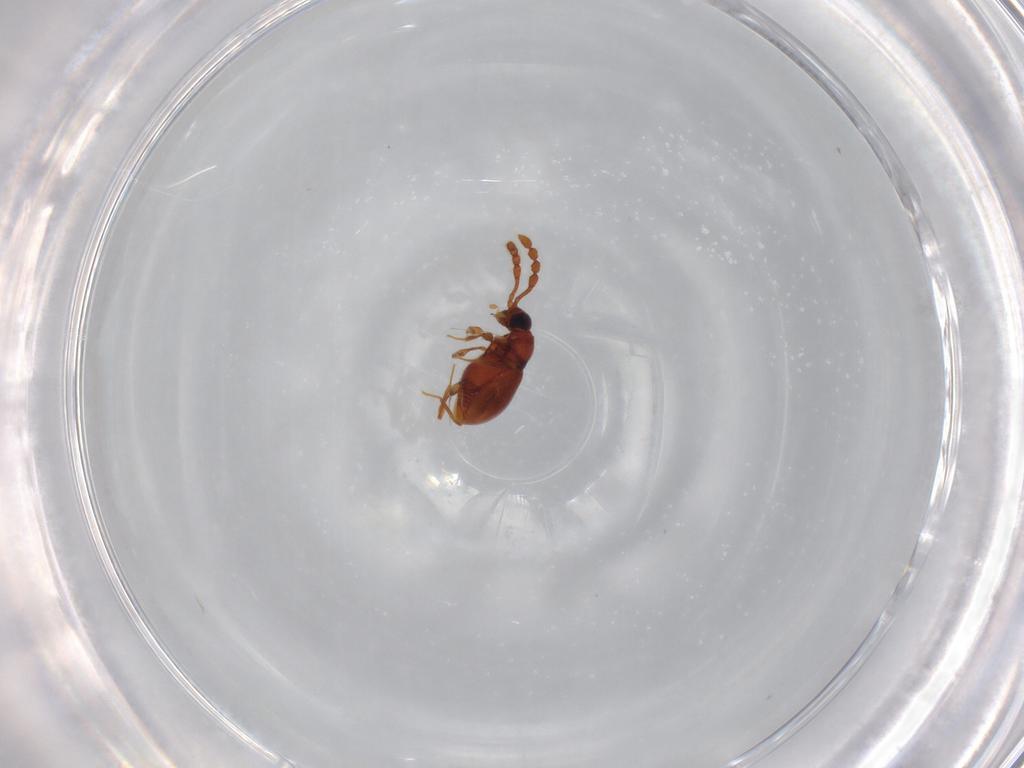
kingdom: Animalia
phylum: Arthropoda
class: Insecta
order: Coleoptera
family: Staphylinidae
